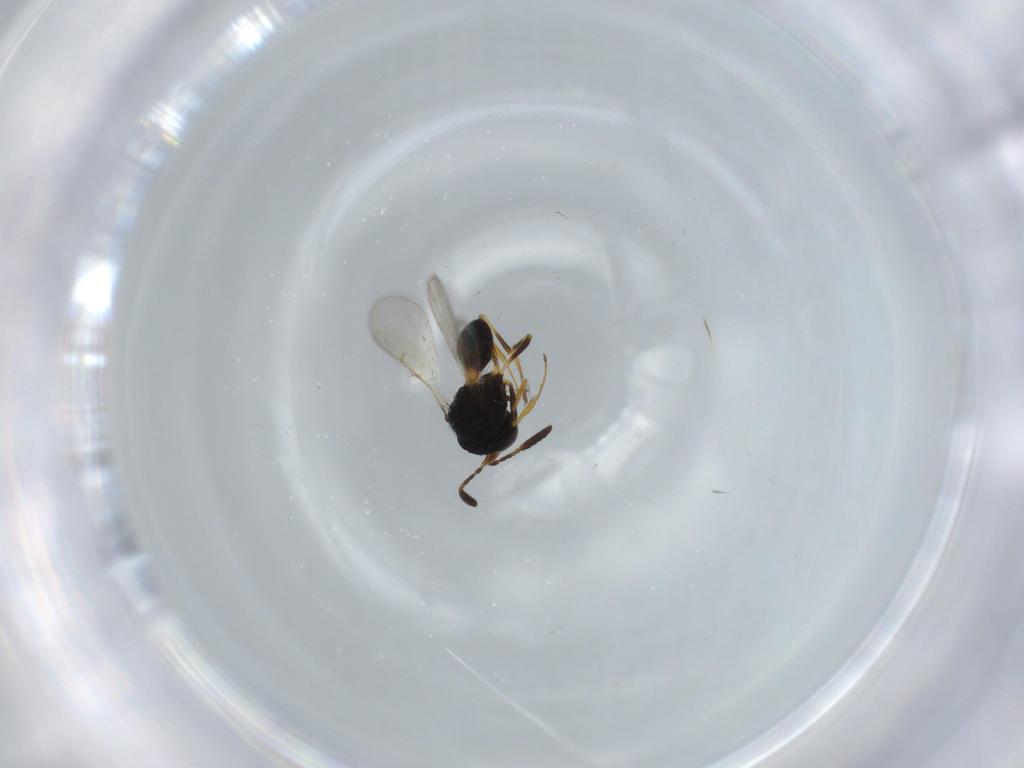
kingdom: Animalia
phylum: Arthropoda
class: Insecta
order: Hymenoptera
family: Scelionidae
